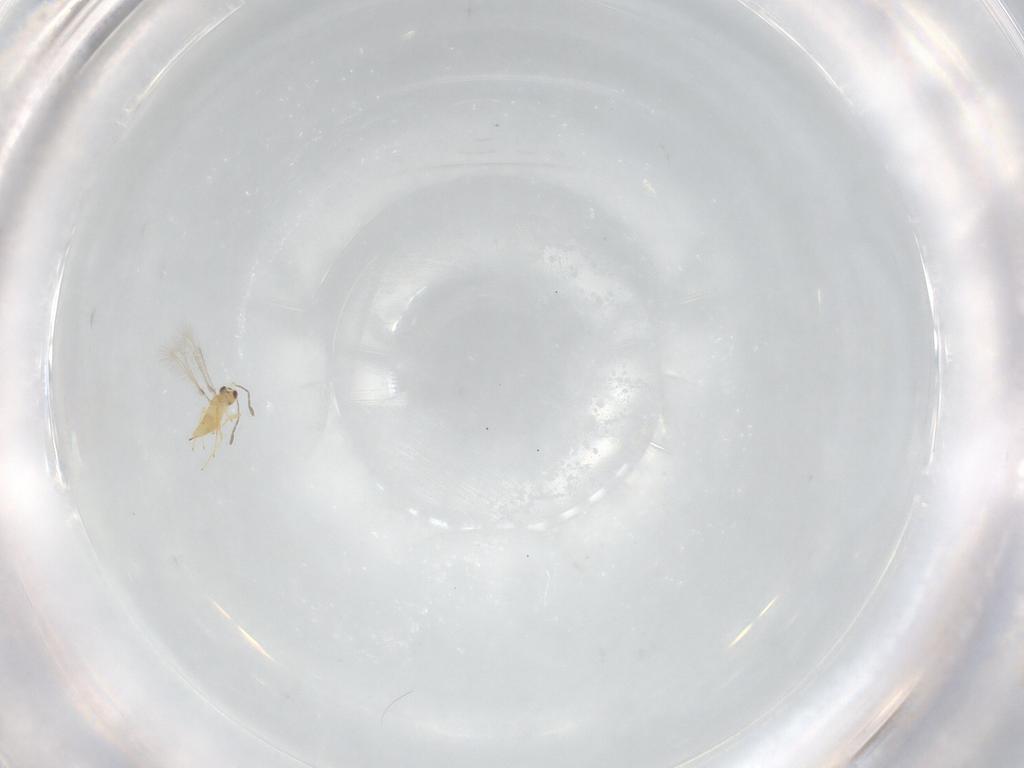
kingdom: Animalia
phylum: Arthropoda
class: Insecta
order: Hymenoptera
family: Mymaridae
